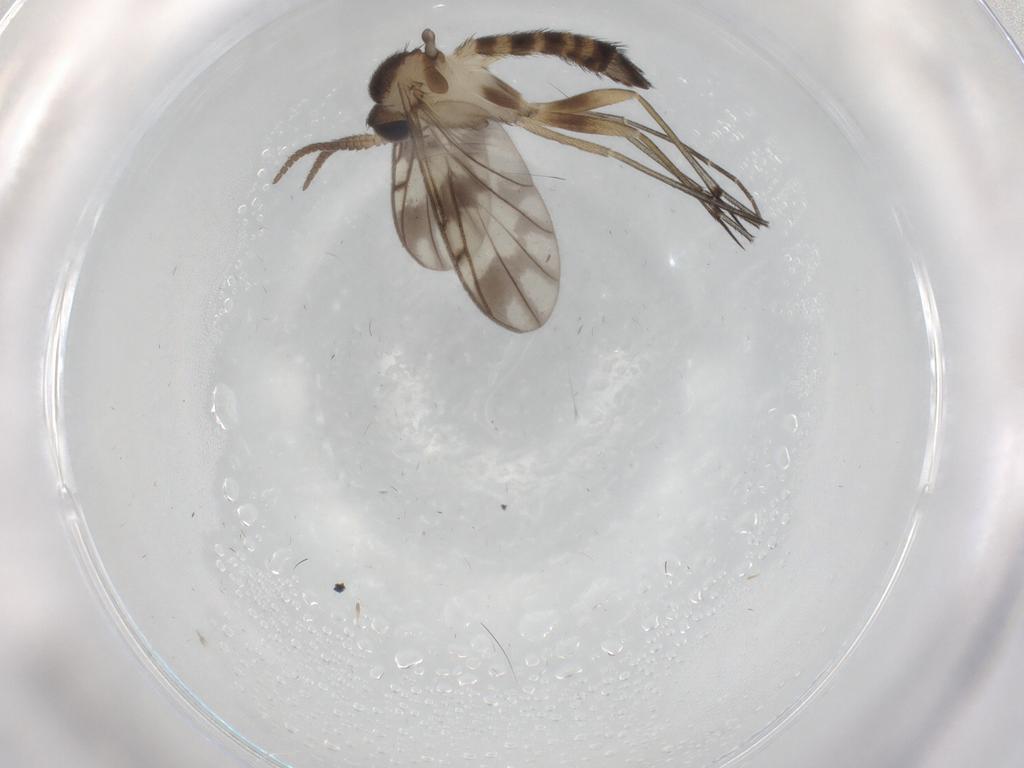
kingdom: Animalia
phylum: Arthropoda
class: Insecta
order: Diptera
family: Keroplatidae
